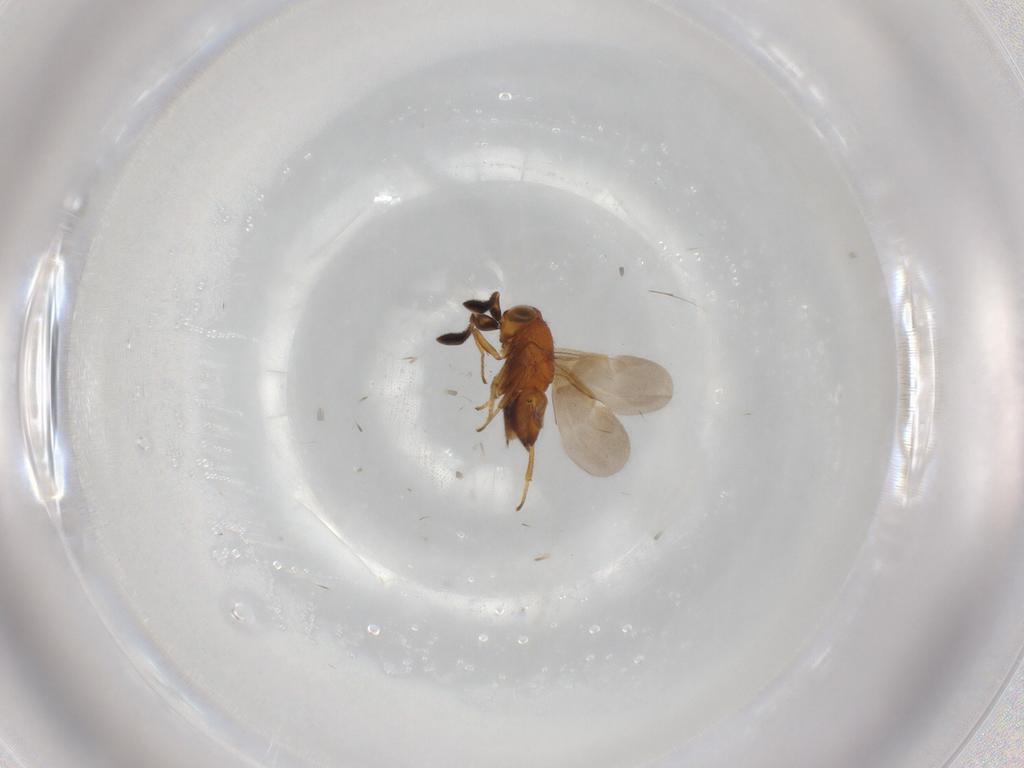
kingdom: Animalia
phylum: Arthropoda
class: Insecta
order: Hymenoptera
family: Encyrtidae
